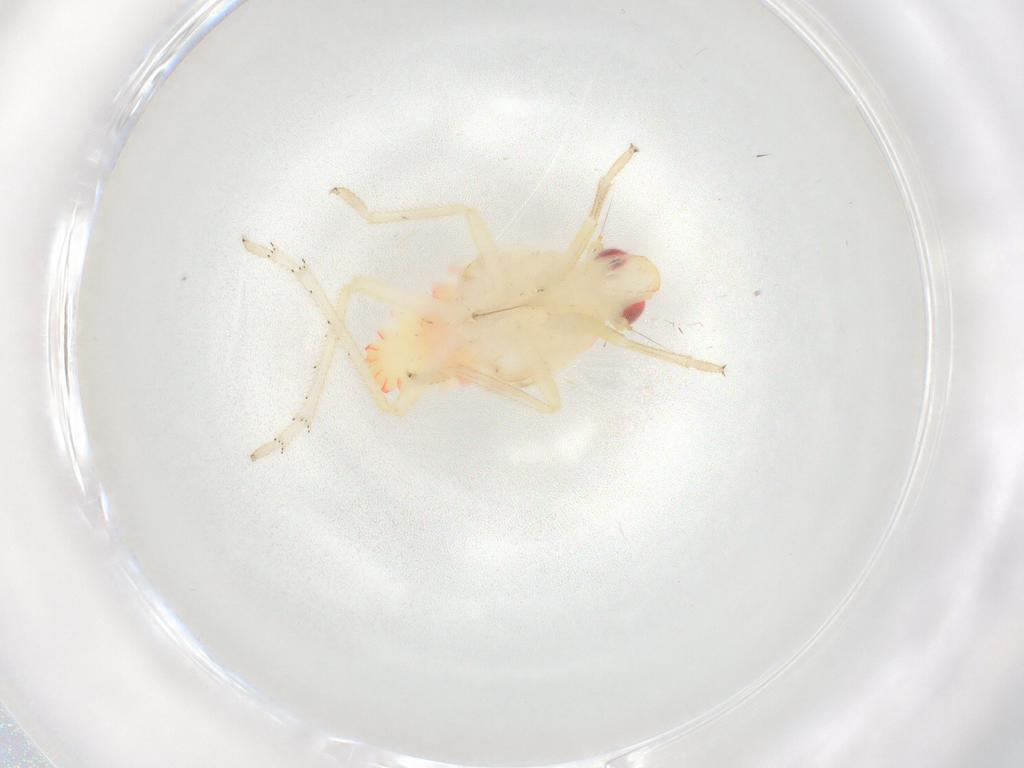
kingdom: Animalia
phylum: Arthropoda
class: Insecta
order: Hemiptera
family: Tropiduchidae
